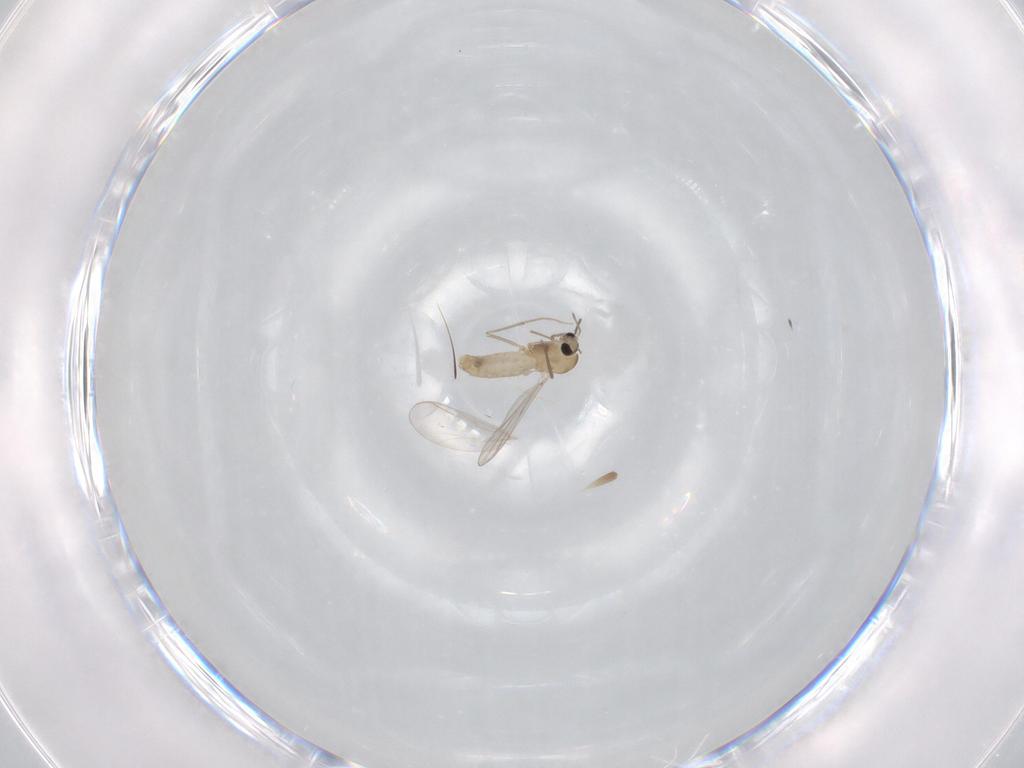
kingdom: Animalia
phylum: Arthropoda
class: Insecta
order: Diptera
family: Chironomidae
